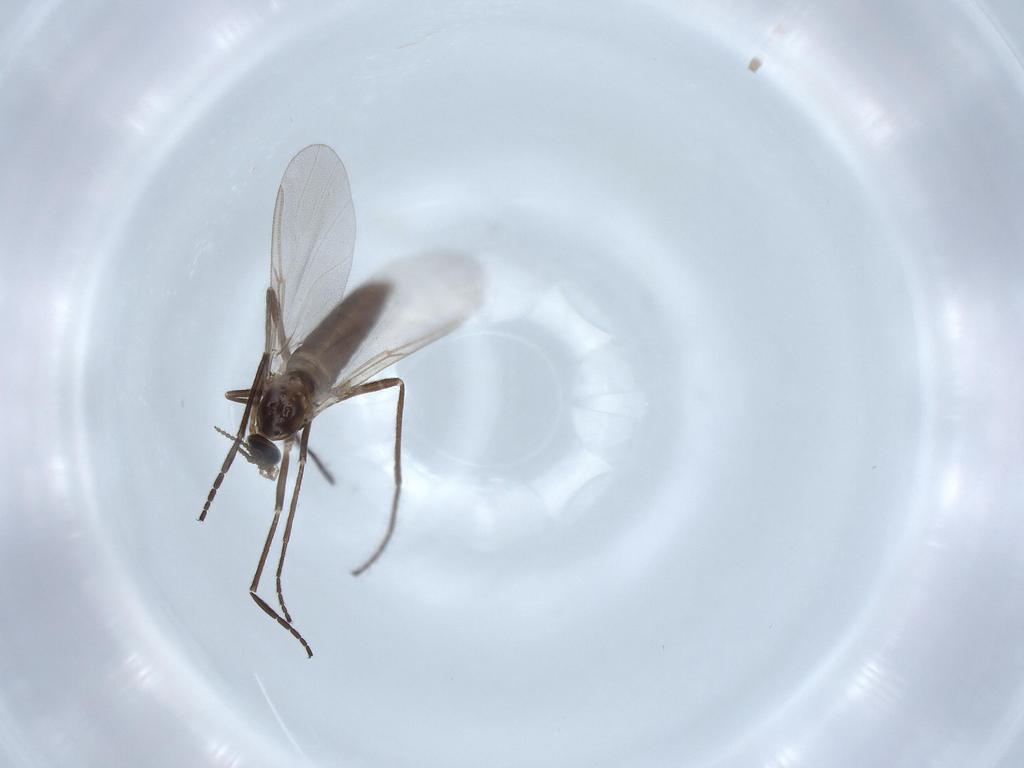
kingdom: Animalia
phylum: Arthropoda
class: Insecta
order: Diptera
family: Cecidomyiidae
